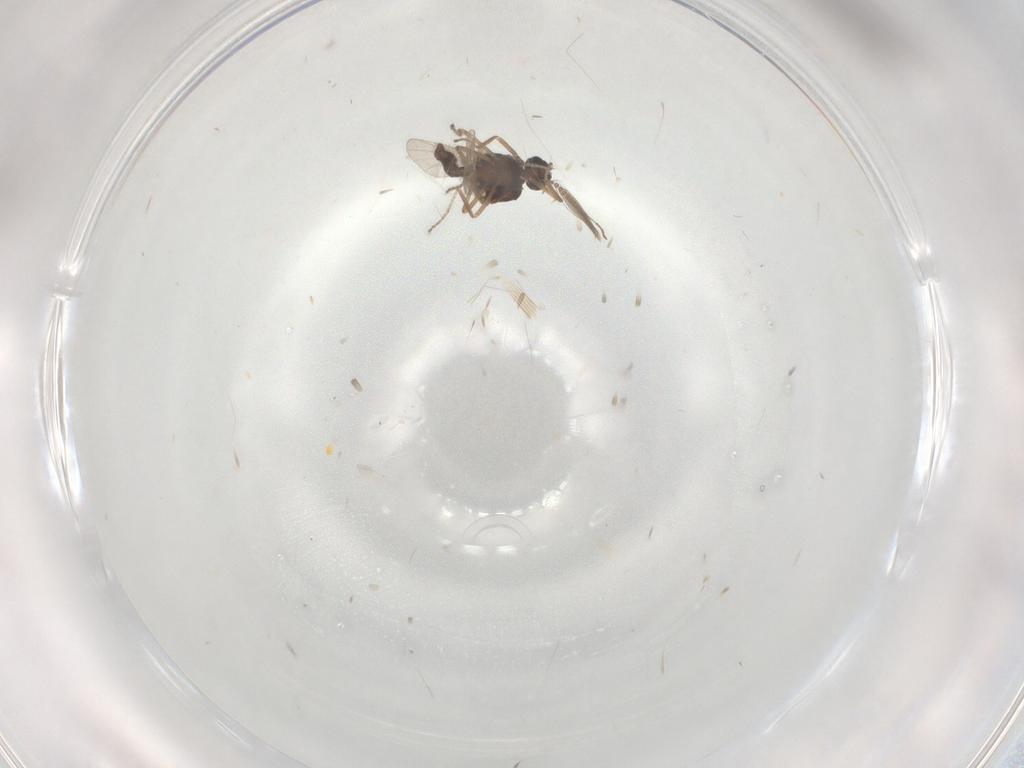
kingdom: Animalia
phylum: Arthropoda
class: Insecta
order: Diptera
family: Ceratopogonidae
